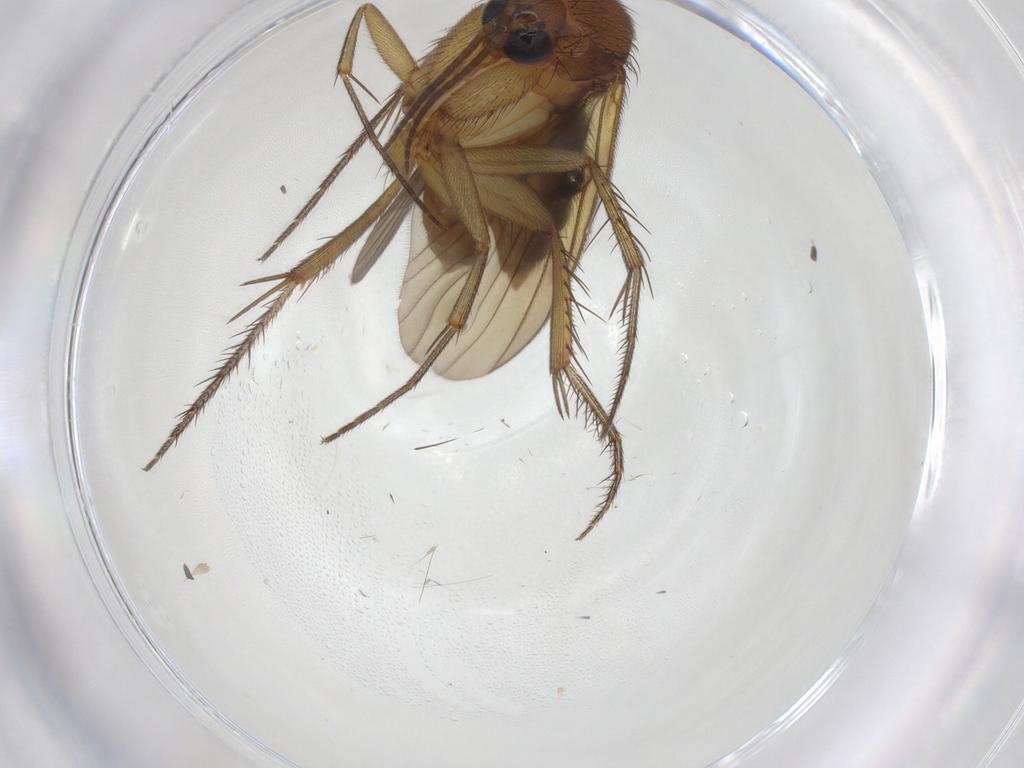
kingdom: Animalia
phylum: Arthropoda
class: Insecta
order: Diptera
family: Mycetophilidae
